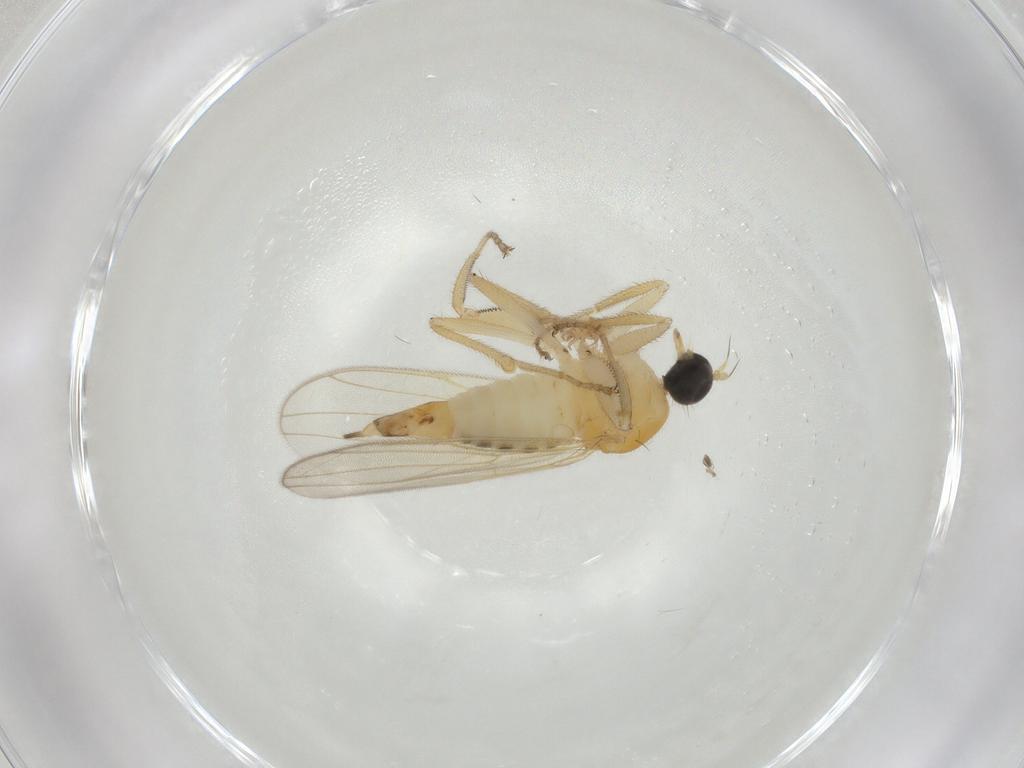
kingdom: Animalia
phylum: Arthropoda
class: Insecta
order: Diptera
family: Hybotidae
